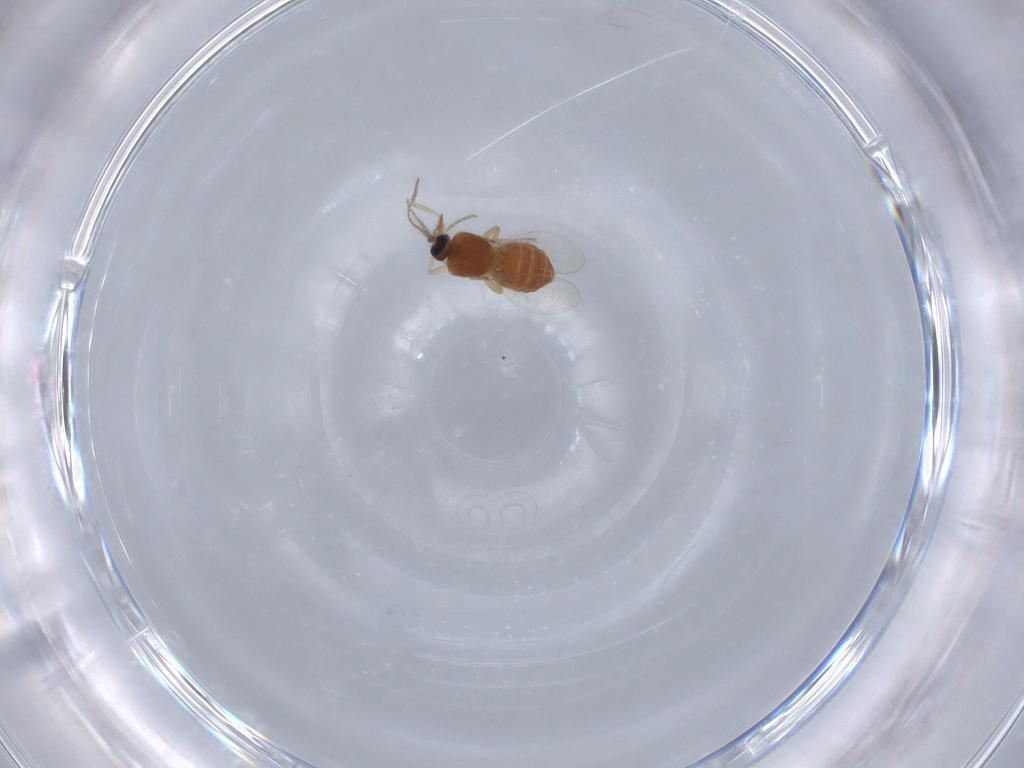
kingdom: Animalia
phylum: Arthropoda
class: Insecta
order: Diptera
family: Ceratopogonidae
